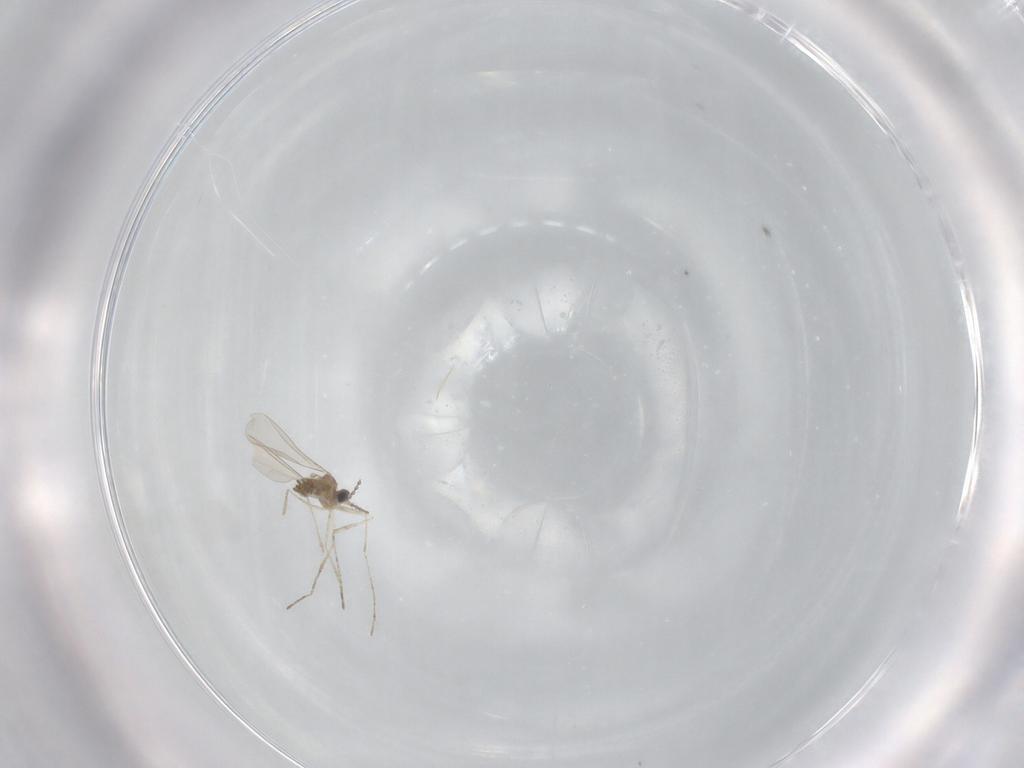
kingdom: Animalia
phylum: Arthropoda
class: Insecta
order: Diptera
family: Cecidomyiidae
